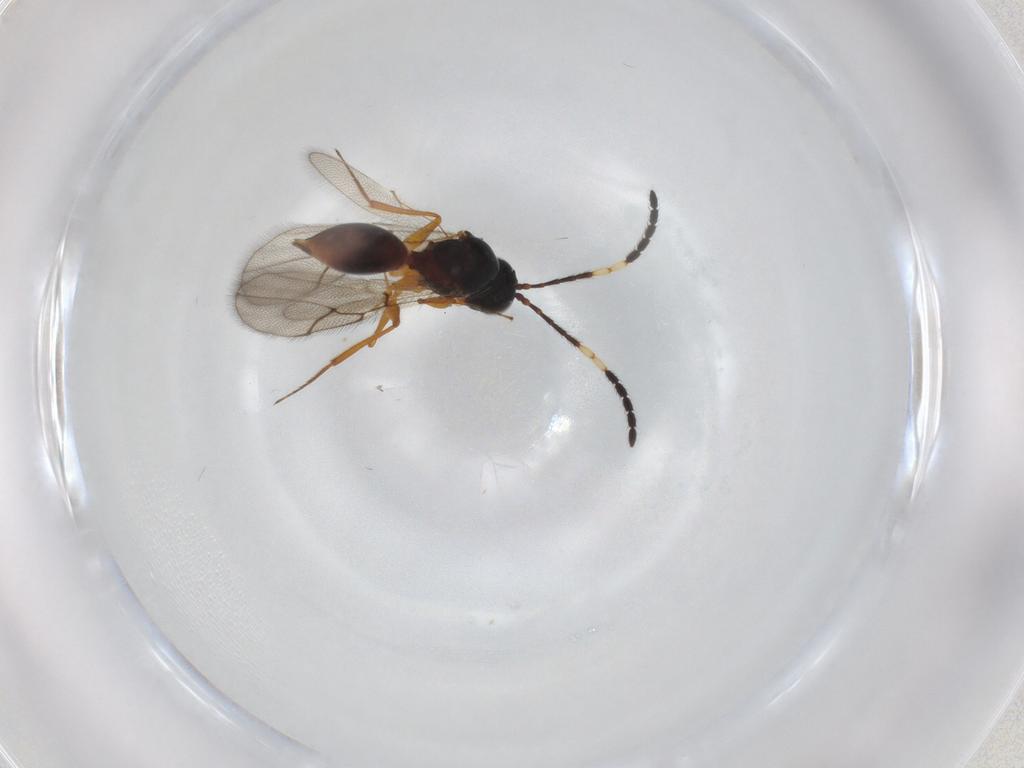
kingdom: Animalia
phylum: Arthropoda
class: Insecta
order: Hymenoptera
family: Figitidae
